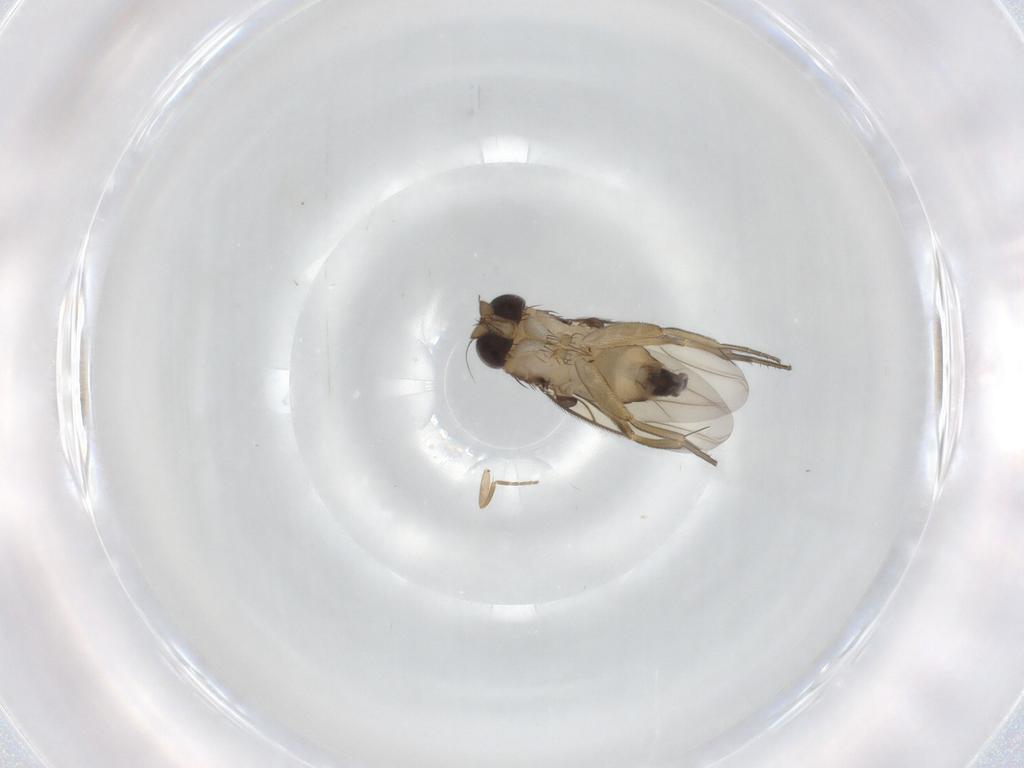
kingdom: Animalia
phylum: Arthropoda
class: Insecta
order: Diptera
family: Phoridae
